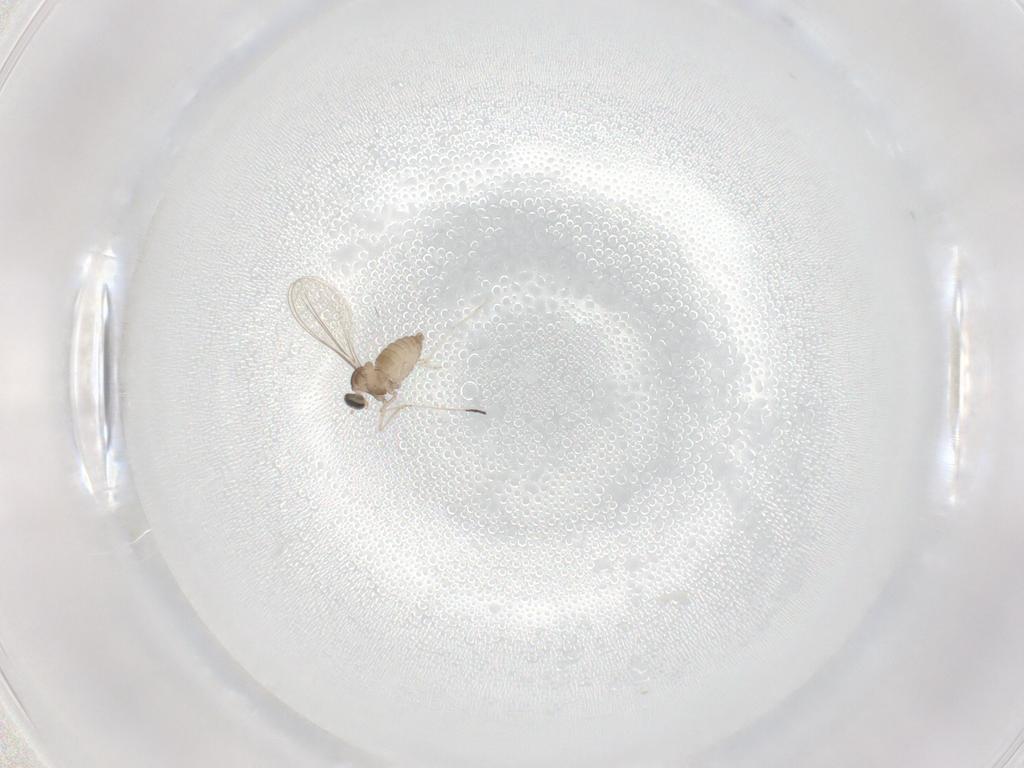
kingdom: Animalia
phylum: Arthropoda
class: Insecta
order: Diptera
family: Cecidomyiidae
